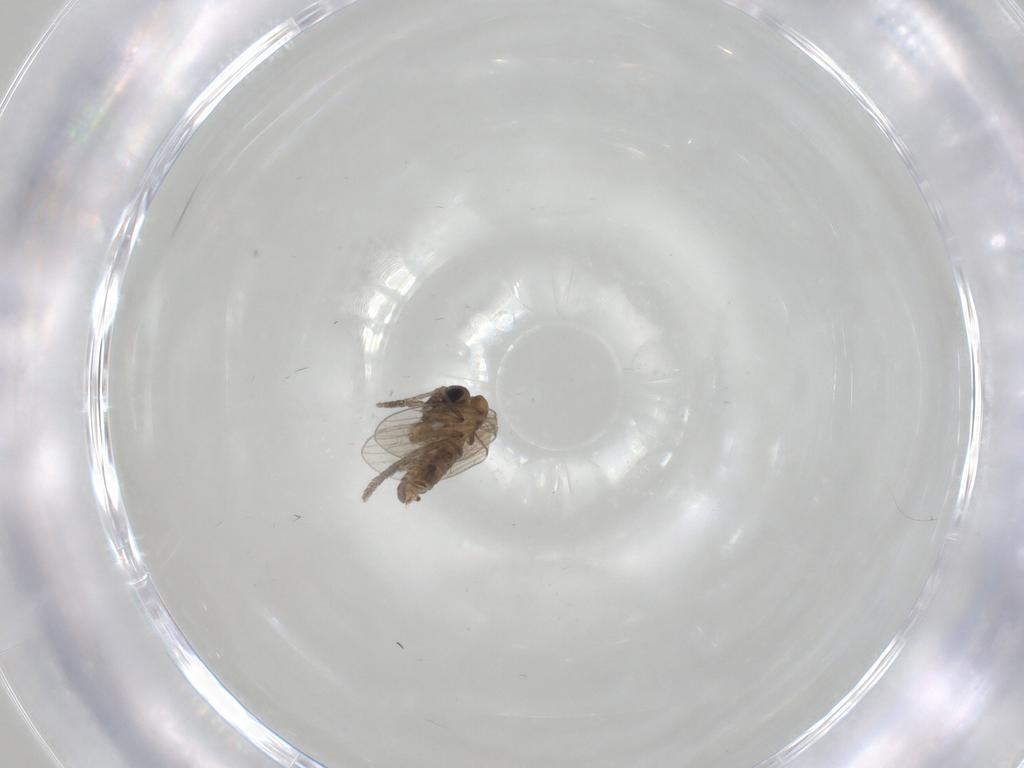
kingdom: Animalia
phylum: Arthropoda
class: Insecta
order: Diptera
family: Psychodidae
